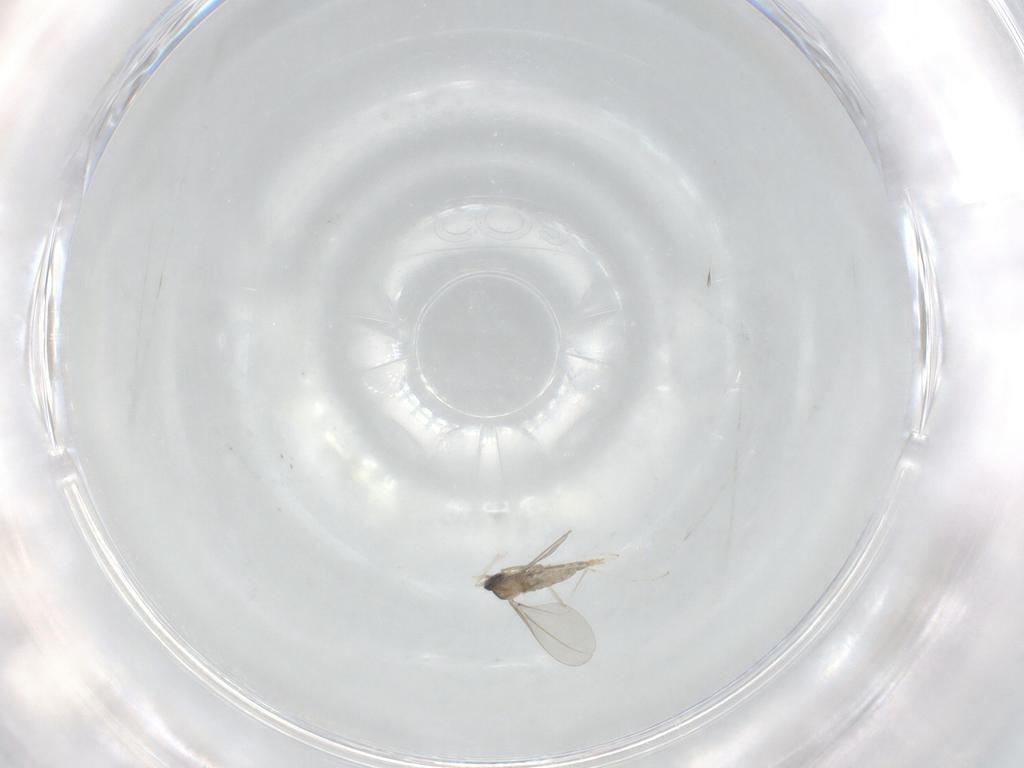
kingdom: Animalia
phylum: Arthropoda
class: Insecta
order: Diptera
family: Cecidomyiidae
